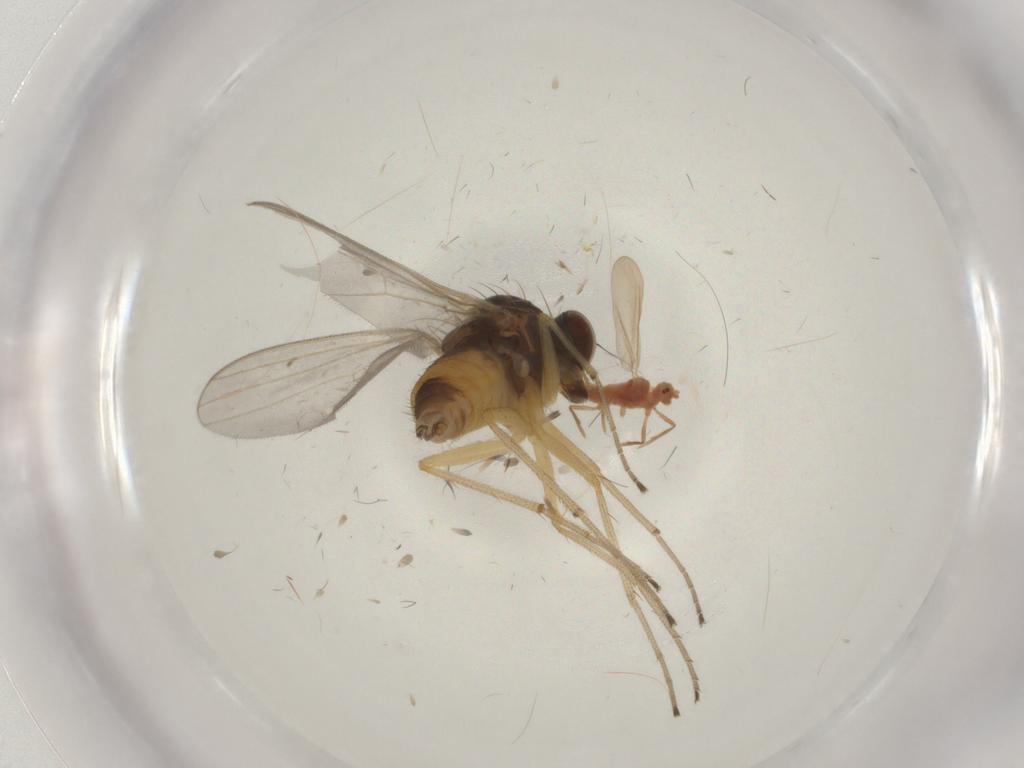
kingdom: Animalia
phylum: Arthropoda
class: Insecta
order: Diptera
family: Dolichopodidae
